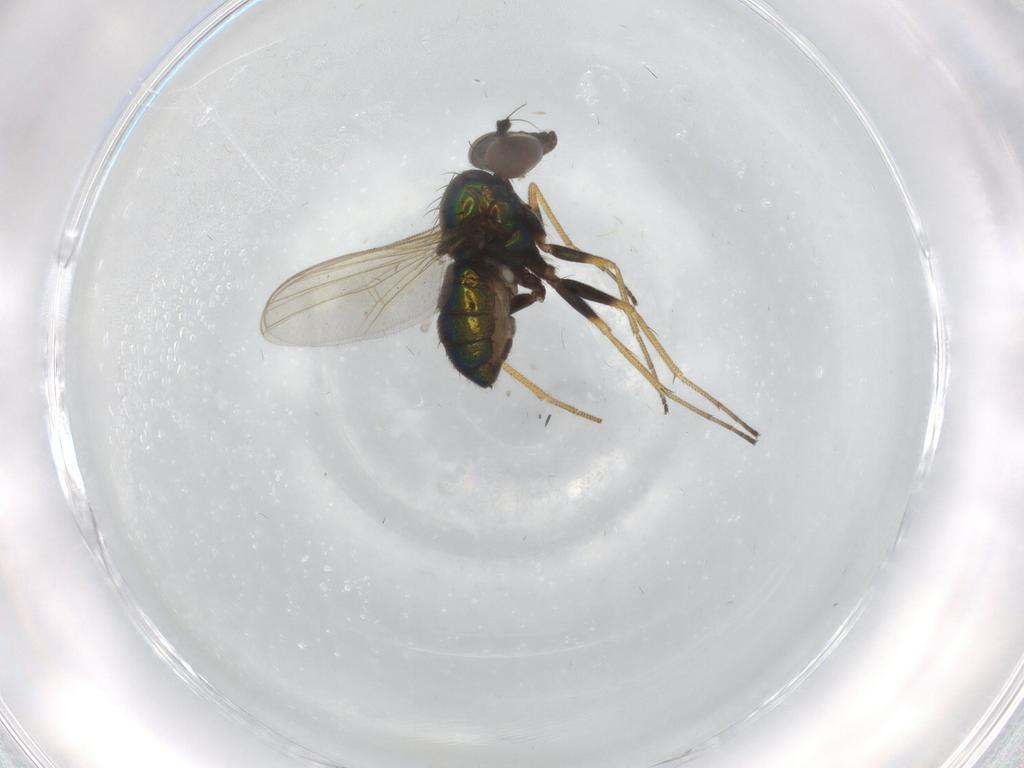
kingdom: Animalia
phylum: Arthropoda
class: Insecta
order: Diptera
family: Dolichopodidae
